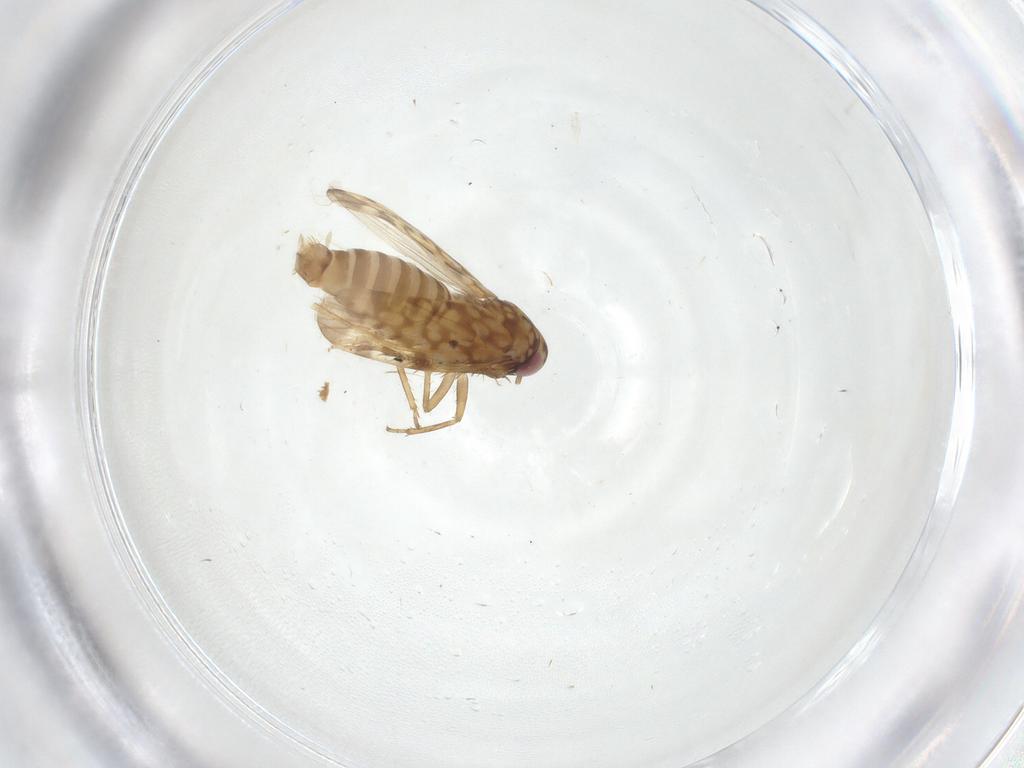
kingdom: Animalia
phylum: Arthropoda
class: Insecta
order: Hemiptera
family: Cicadellidae
